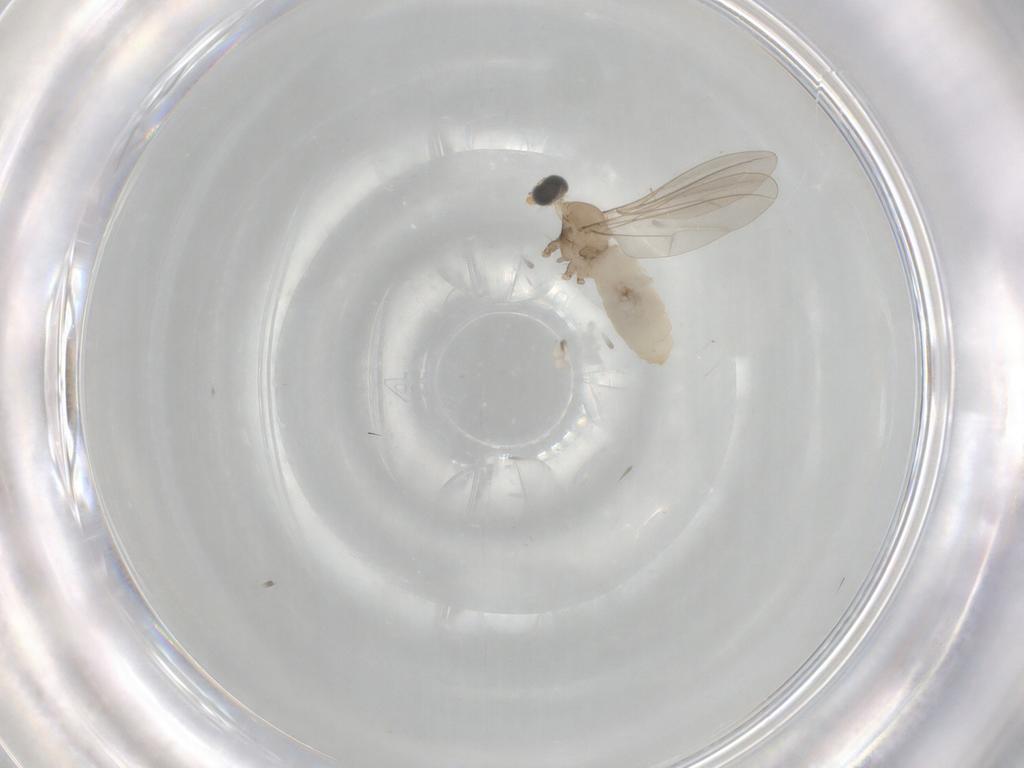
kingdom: Animalia
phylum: Arthropoda
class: Insecta
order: Diptera
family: Cecidomyiidae
